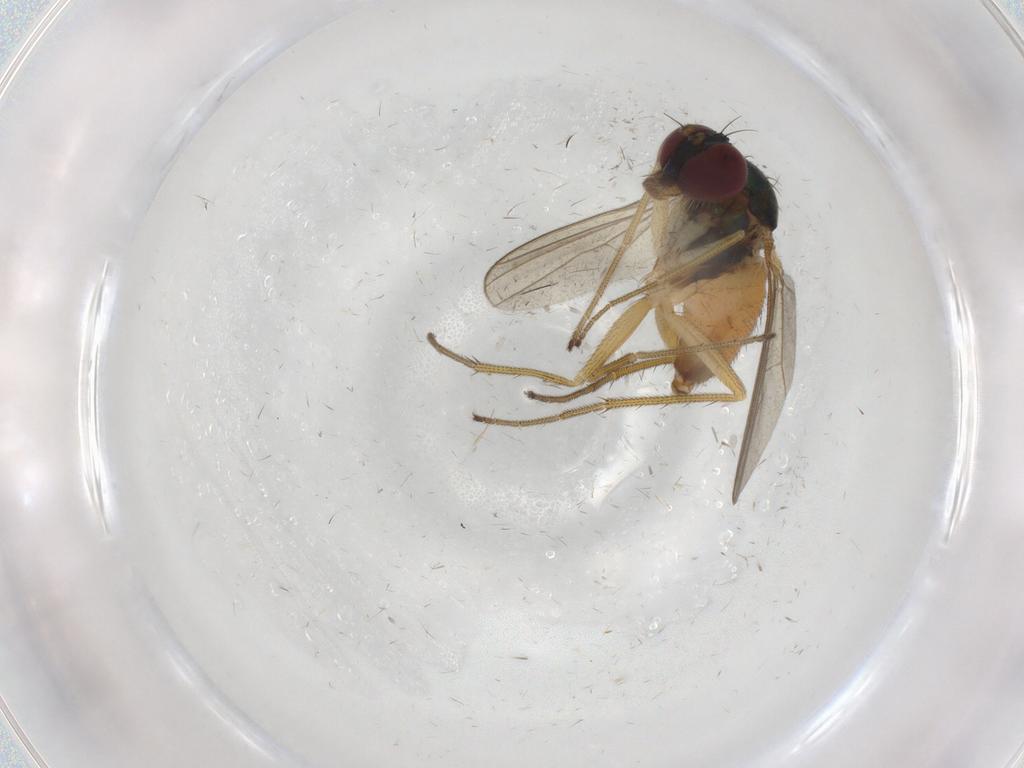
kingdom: Animalia
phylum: Arthropoda
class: Insecta
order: Diptera
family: Dolichopodidae
